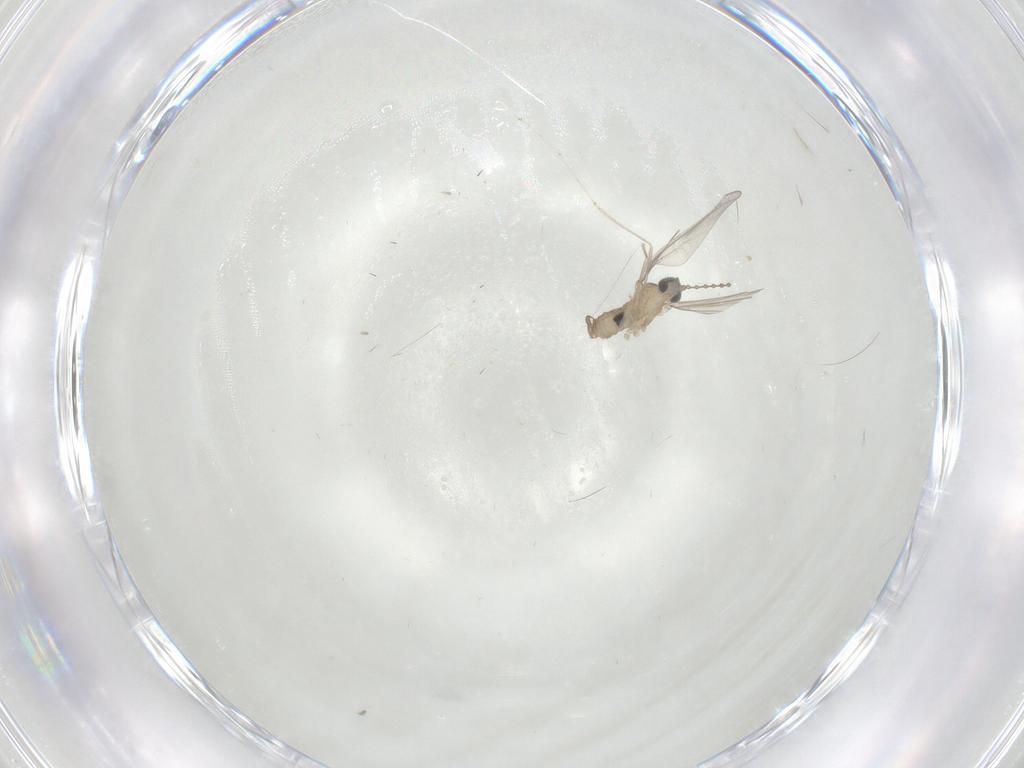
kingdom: Animalia
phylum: Arthropoda
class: Insecta
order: Diptera
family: Cecidomyiidae
